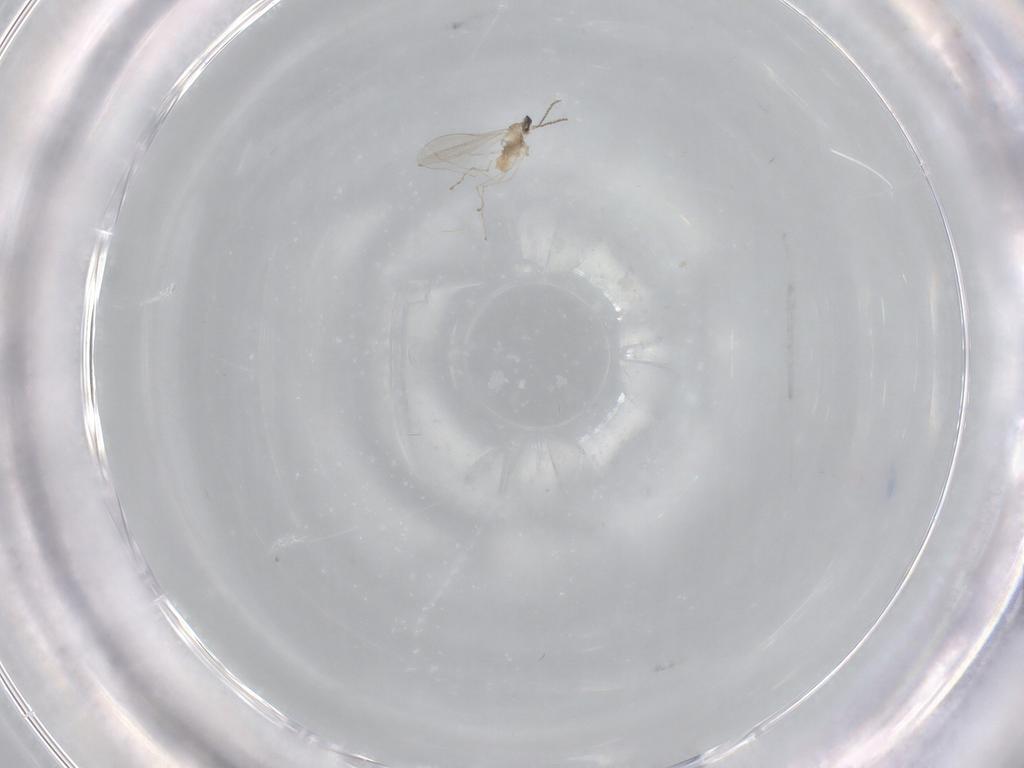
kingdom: Animalia
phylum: Arthropoda
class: Insecta
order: Diptera
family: Cecidomyiidae
